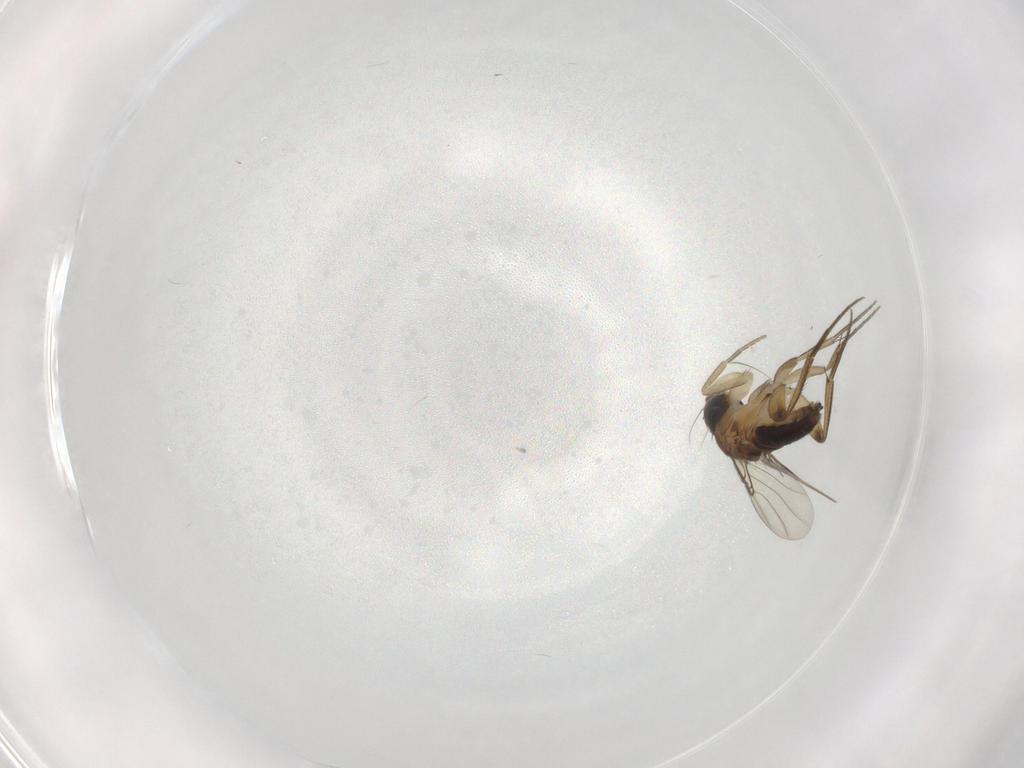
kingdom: Animalia
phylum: Arthropoda
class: Insecta
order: Diptera
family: Phoridae
